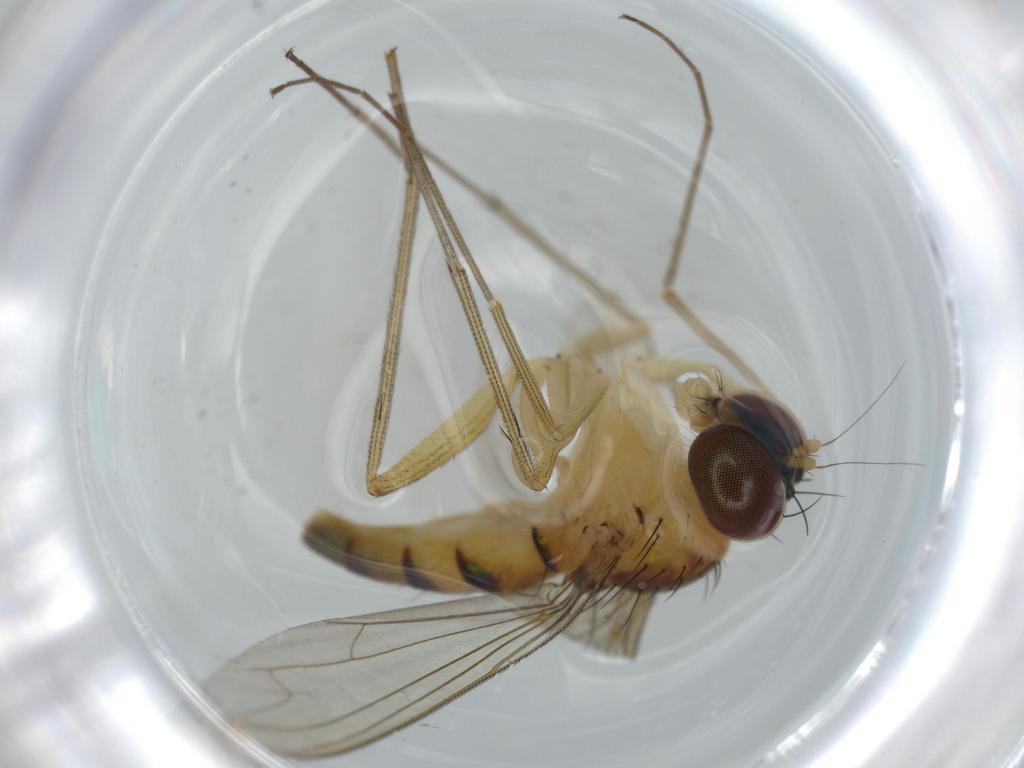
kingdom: Animalia
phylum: Arthropoda
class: Insecta
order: Diptera
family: Dolichopodidae
